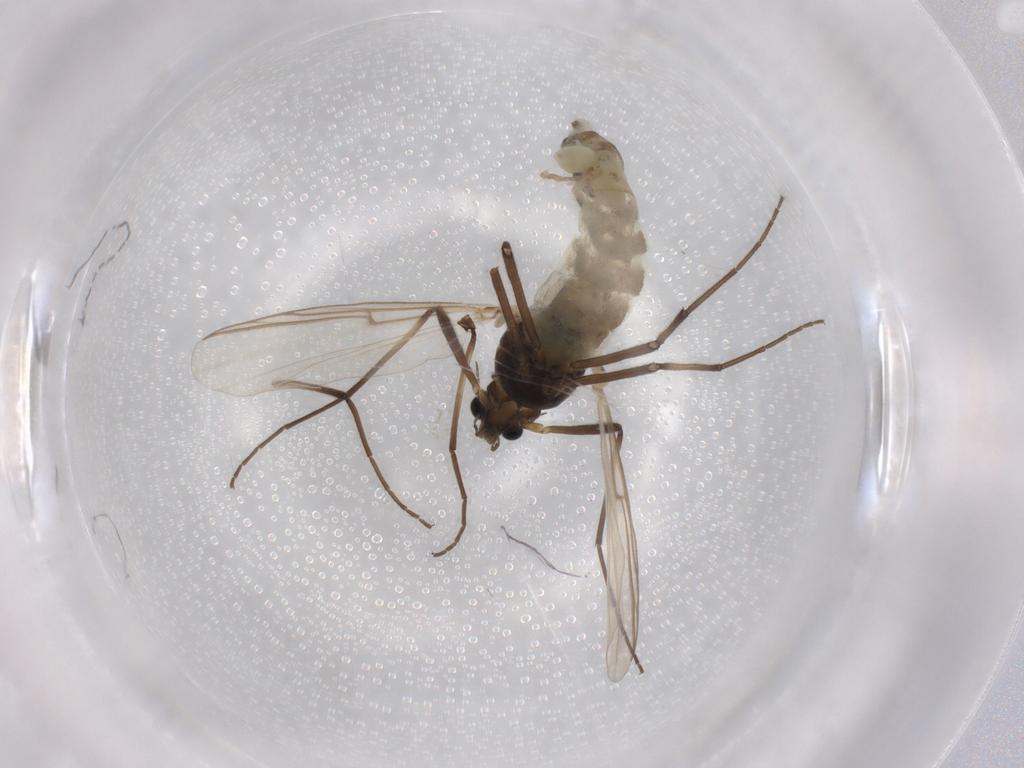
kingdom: Animalia
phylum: Arthropoda
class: Insecta
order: Diptera
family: Chironomidae
